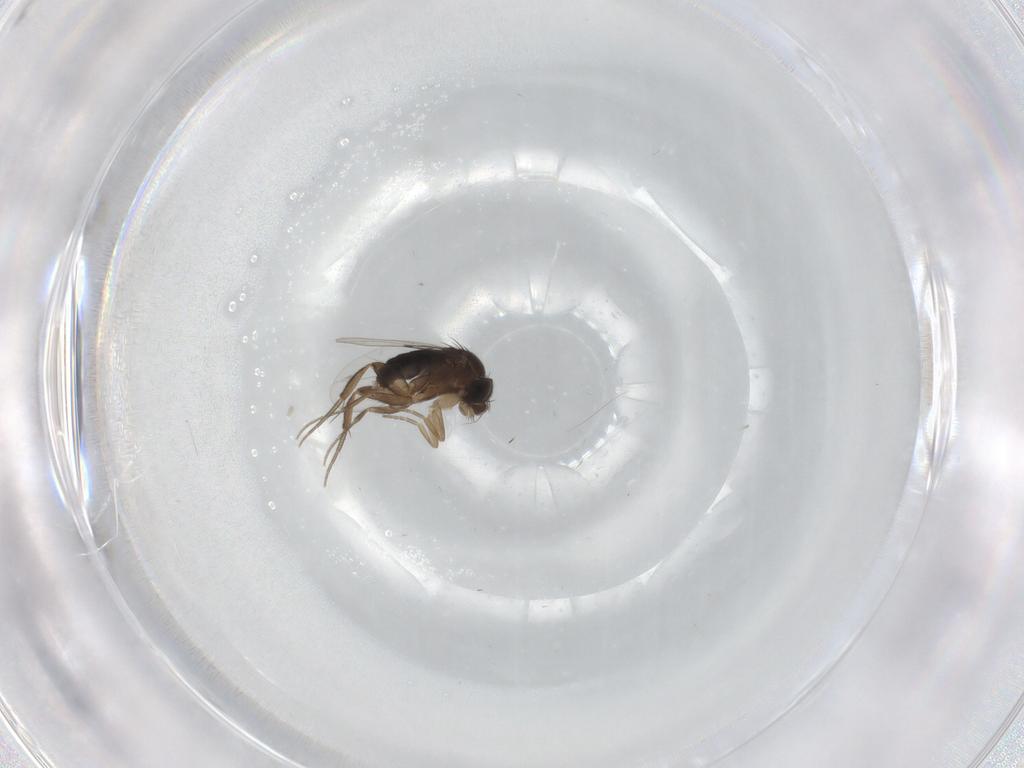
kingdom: Animalia
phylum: Arthropoda
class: Insecta
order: Diptera
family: Phoridae
